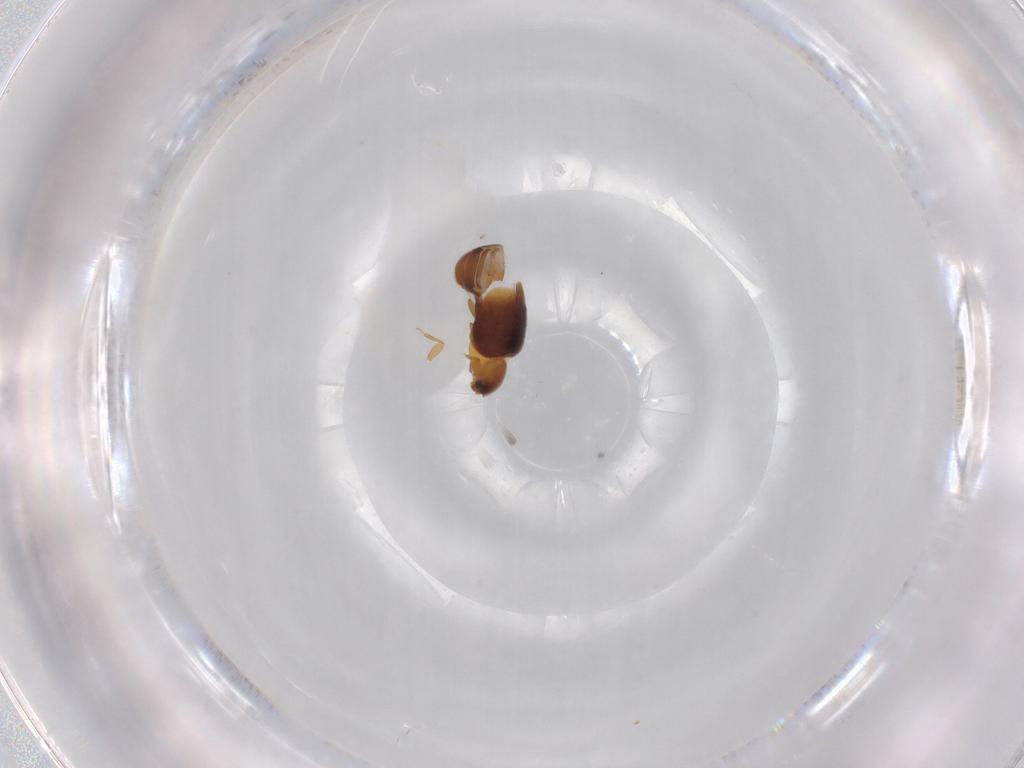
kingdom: Animalia
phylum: Arthropoda
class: Insecta
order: Coleoptera
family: Corylophidae
